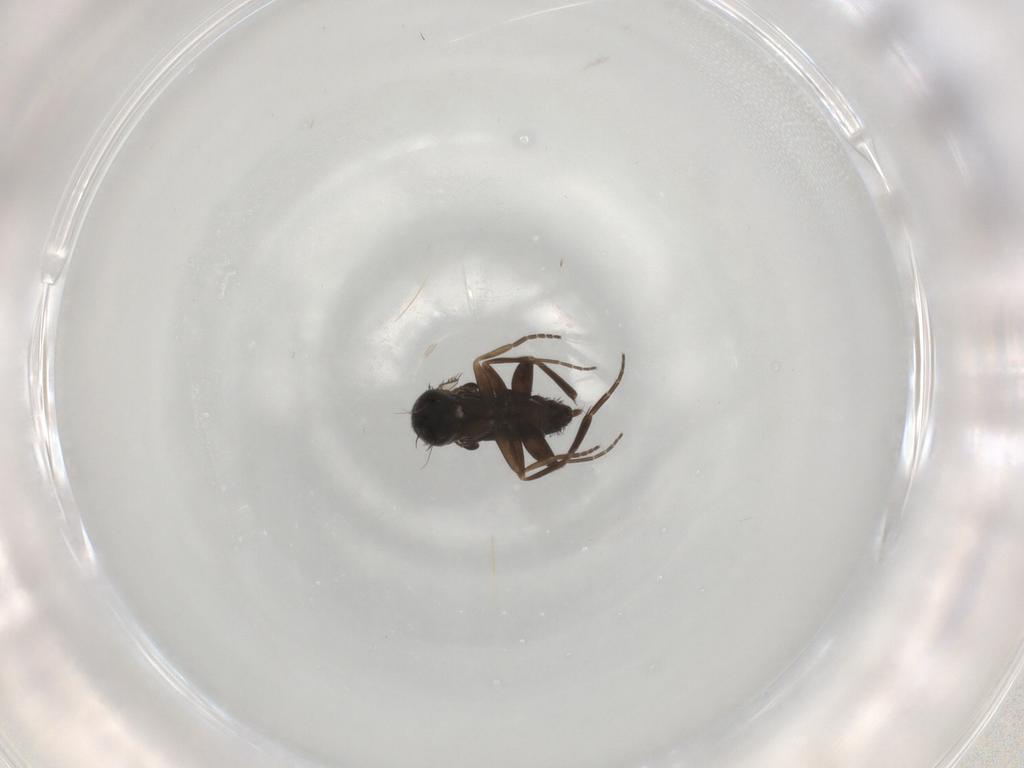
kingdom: Animalia
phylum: Arthropoda
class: Insecta
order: Diptera
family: Phoridae
